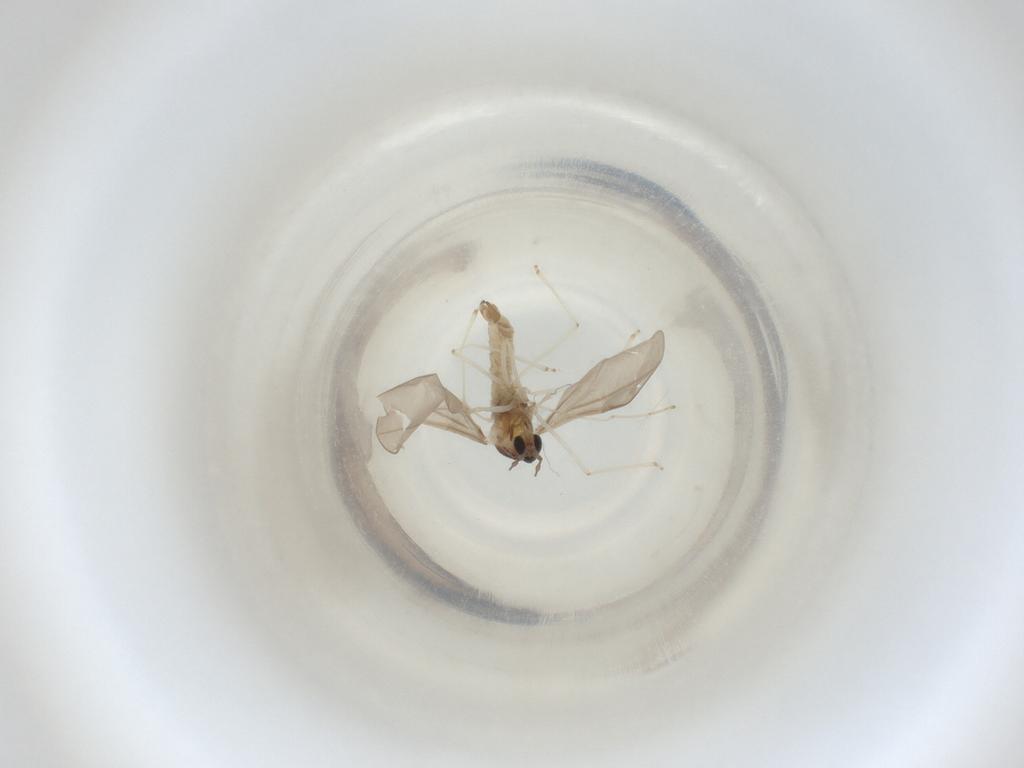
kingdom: Animalia
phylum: Arthropoda
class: Insecta
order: Diptera
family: Cecidomyiidae
